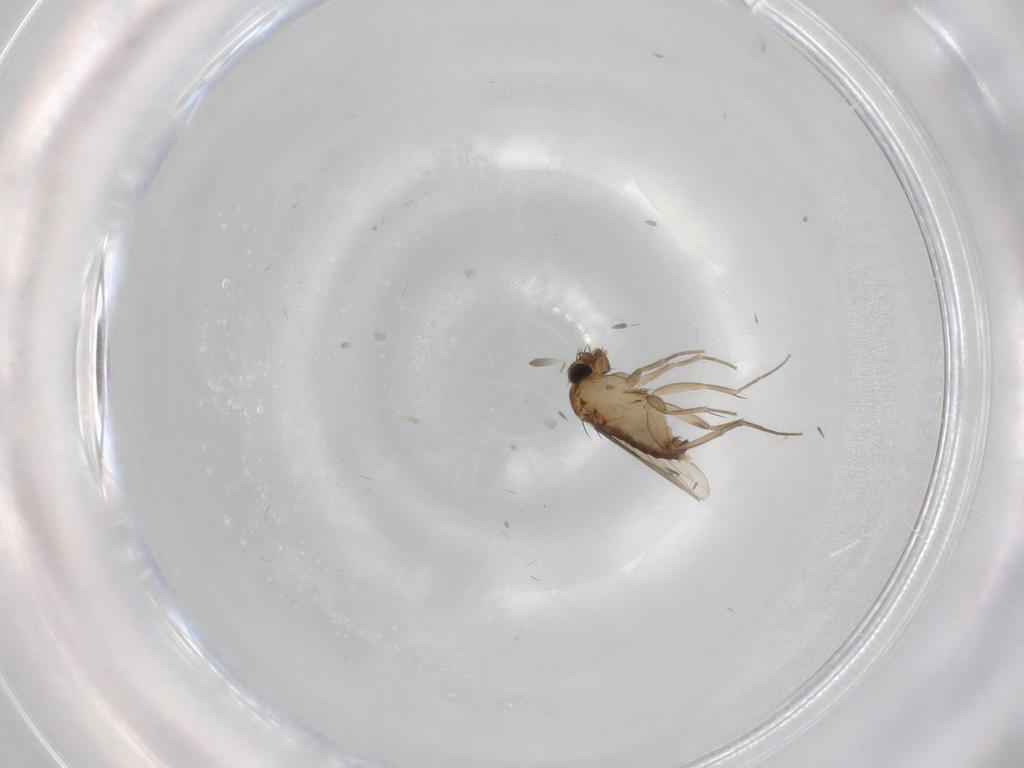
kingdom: Animalia
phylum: Arthropoda
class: Insecta
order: Diptera
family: Phoridae
